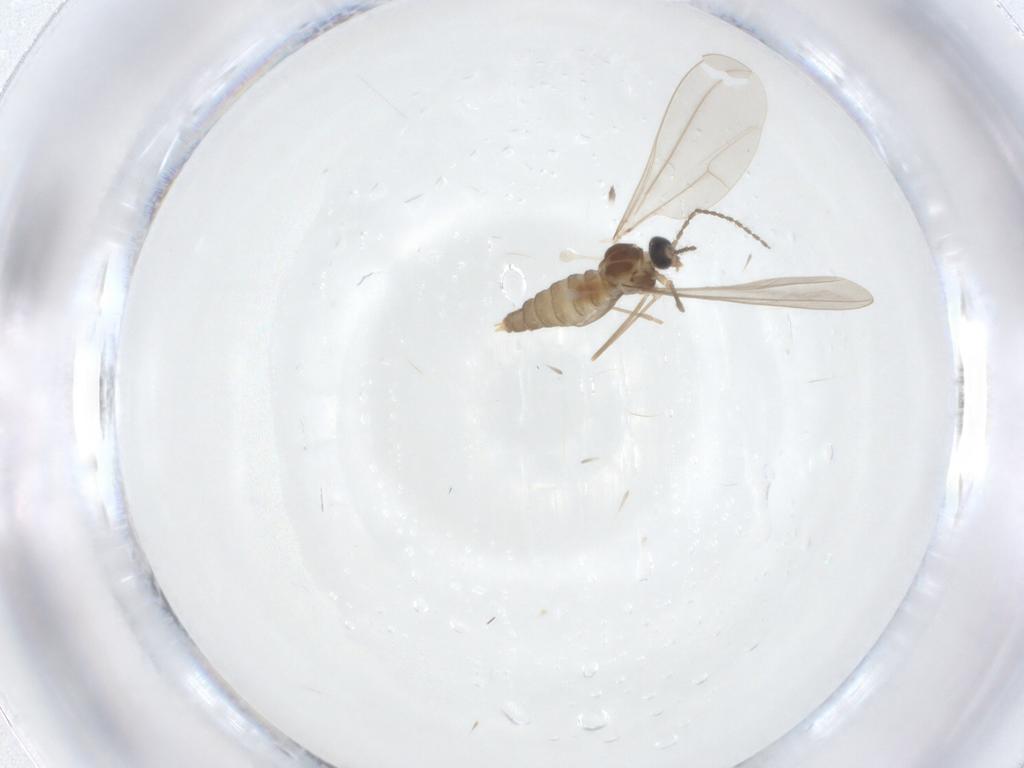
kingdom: Animalia
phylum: Arthropoda
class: Insecta
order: Diptera
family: Cecidomyiidae
